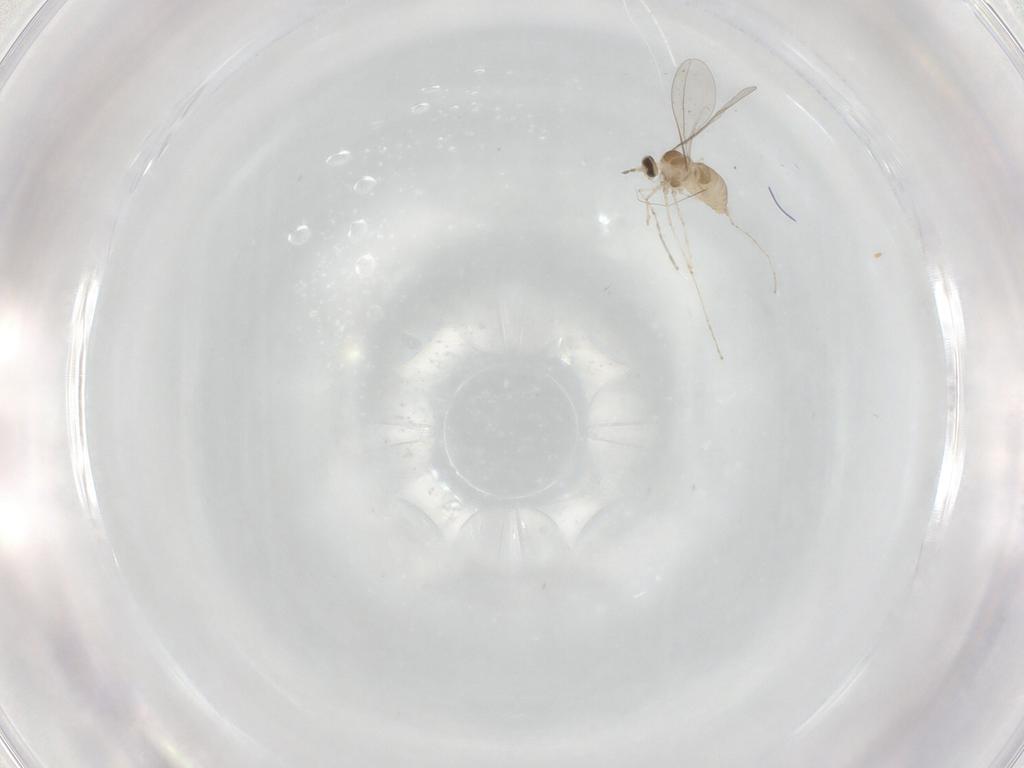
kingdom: Animalia
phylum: Arthropoda
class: Insecta
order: Diptera
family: Cecidomyiidae
